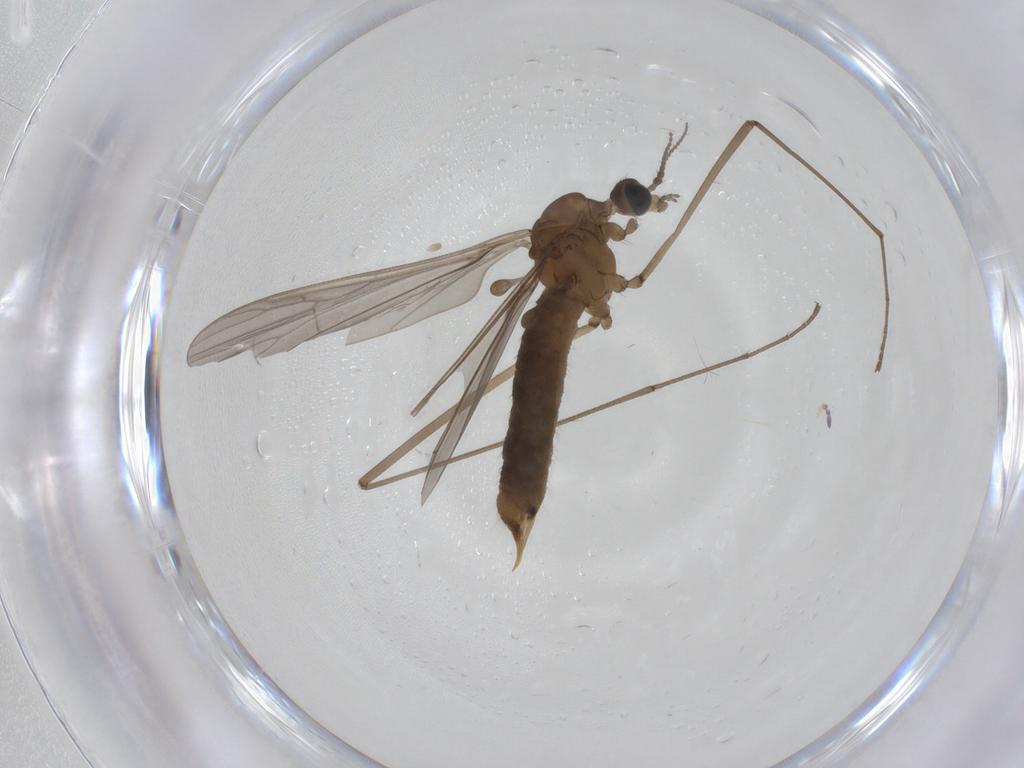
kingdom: Animalia
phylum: Arthropoda
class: Insecta
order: Diptera
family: Limoniidae
